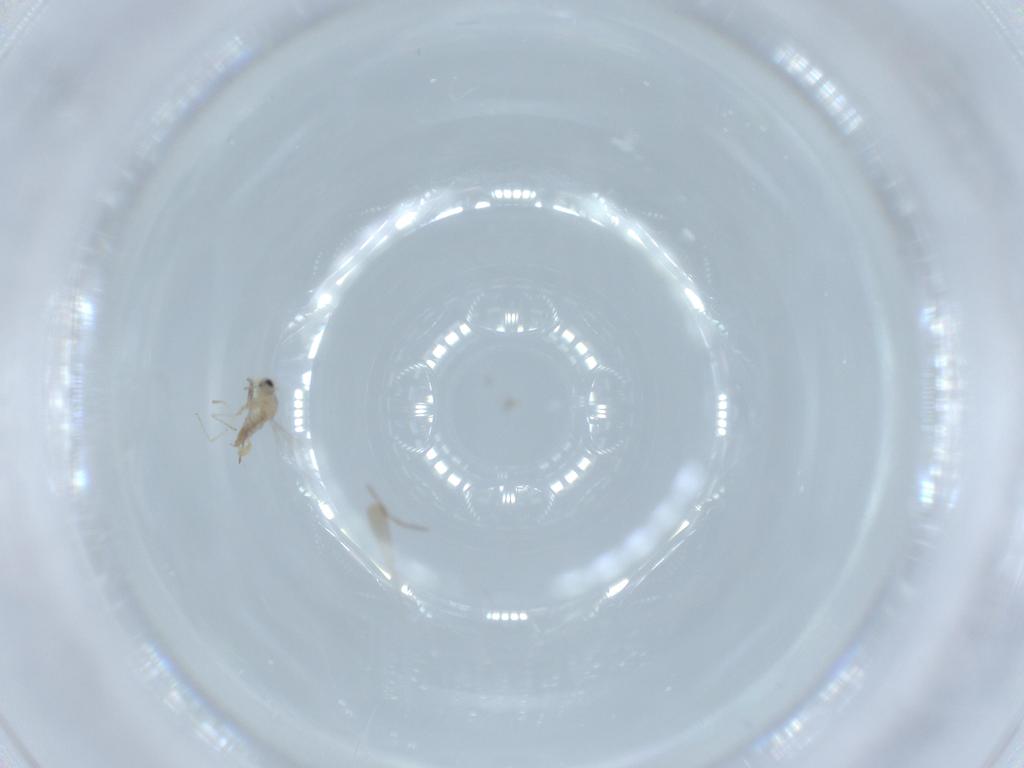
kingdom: Animalia
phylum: Arthropoda
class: Insecta
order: Diptera
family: Cecidomyiidae
